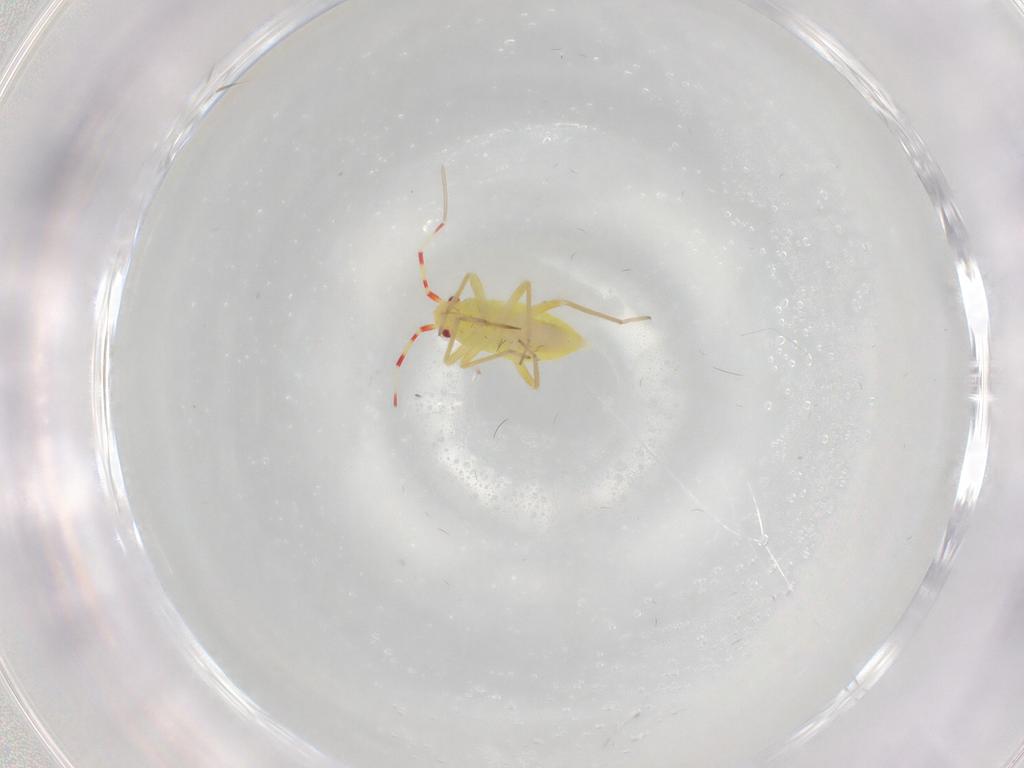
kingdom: Animalia
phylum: Arthropoda
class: Insecta
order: Hemiptera
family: Miridae
